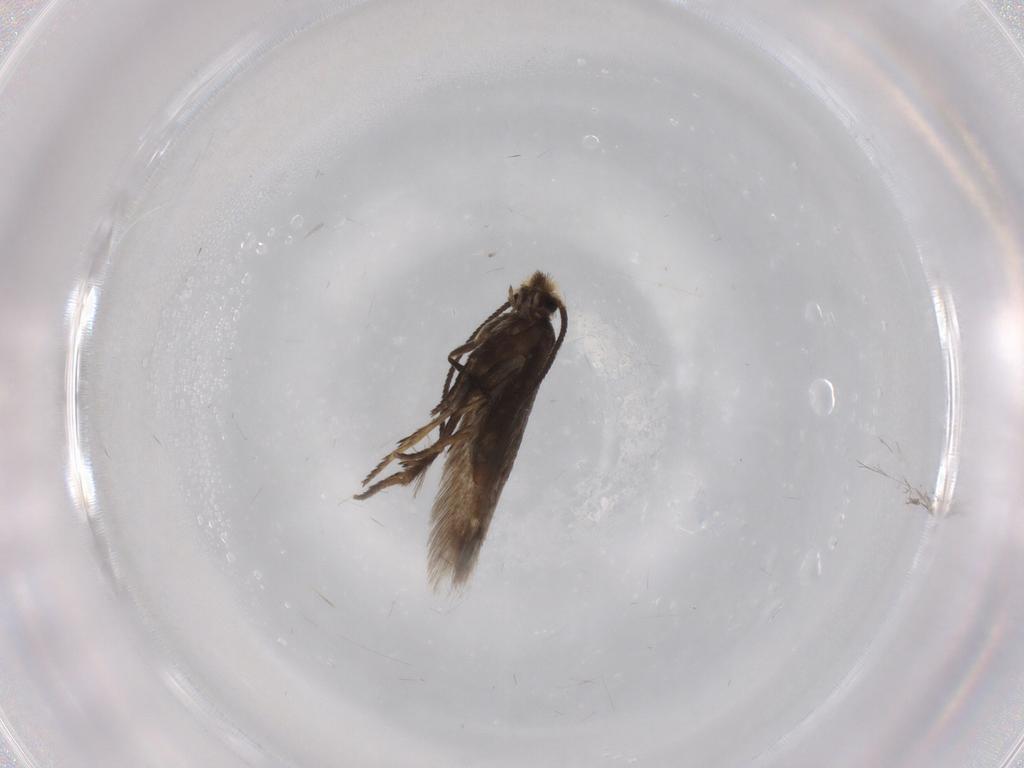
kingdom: Animalia
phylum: Arthropoda
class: Insecta
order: Lepidoptera
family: Nepticulidae
